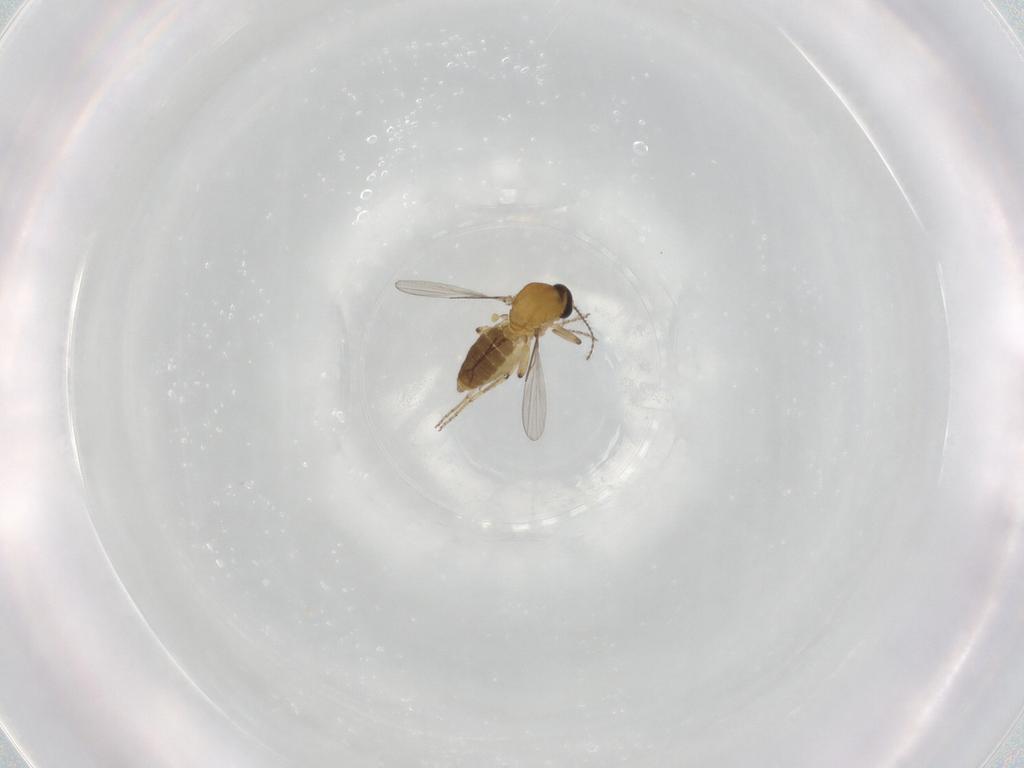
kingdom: Animalia
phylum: Arthropoda
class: Insecta
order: Diptera
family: Ceratopogonidae
